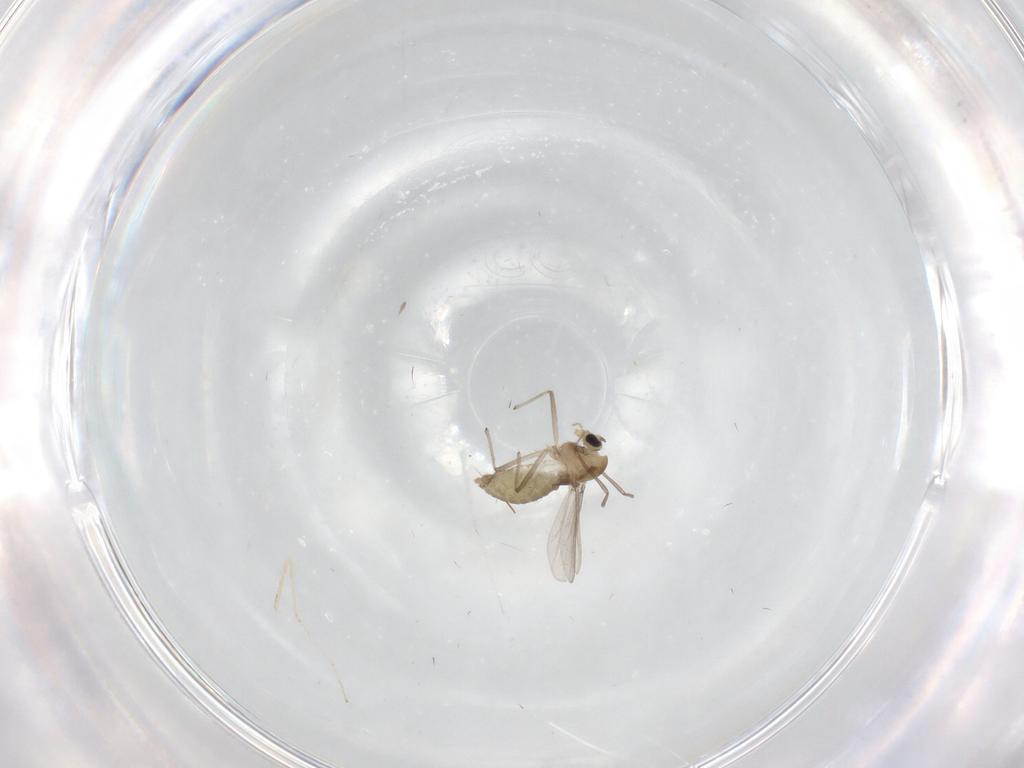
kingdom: Animalia
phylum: Arthropoda
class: Insecta
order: Diptera
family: Chironomidae
